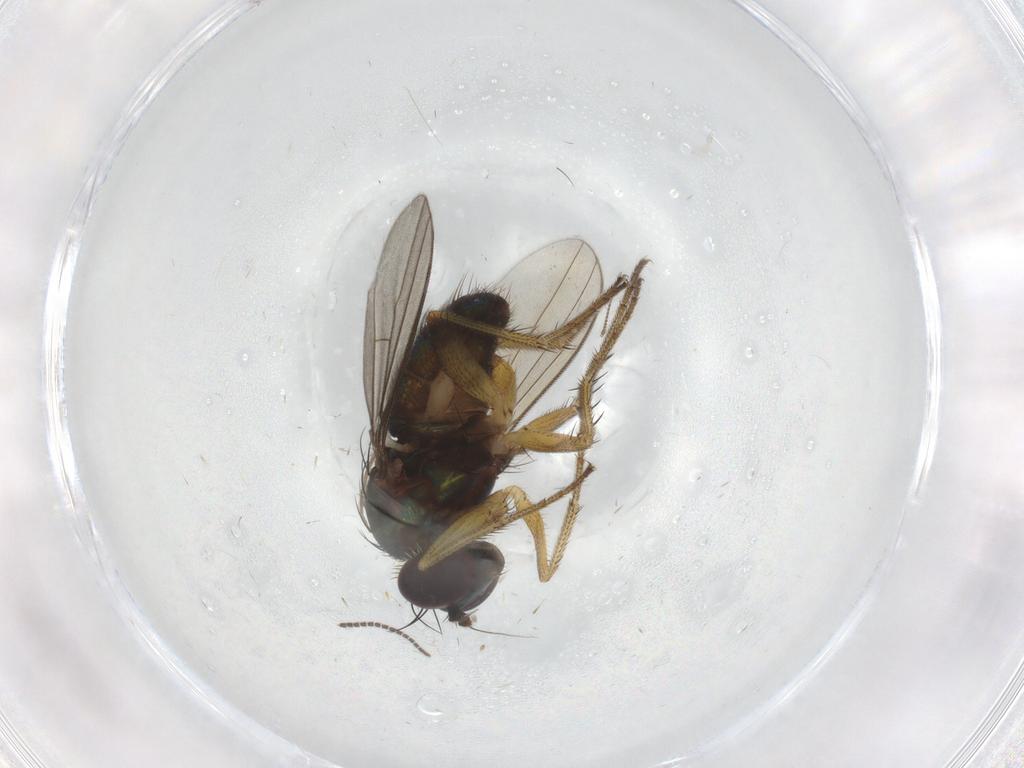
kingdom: Animalia
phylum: Arthropoda
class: Insecta
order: Diptera
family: Dolichopodidae
